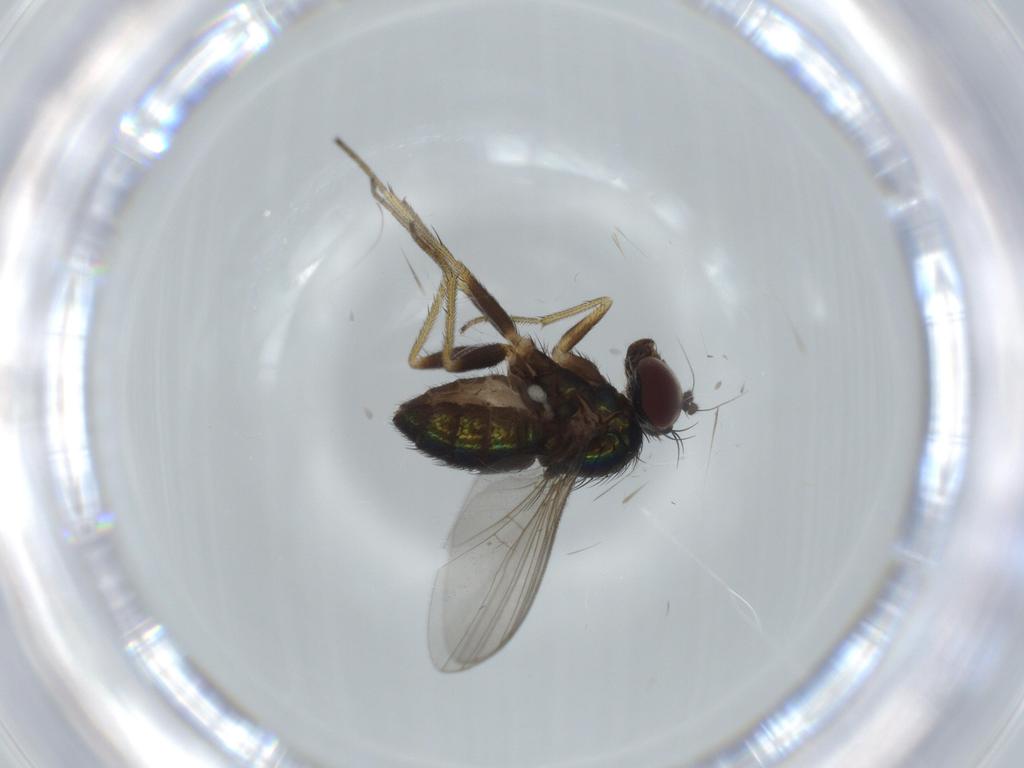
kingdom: Animalia
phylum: Arthropoda
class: Insecta
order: Diptera
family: Dolichopodidae
